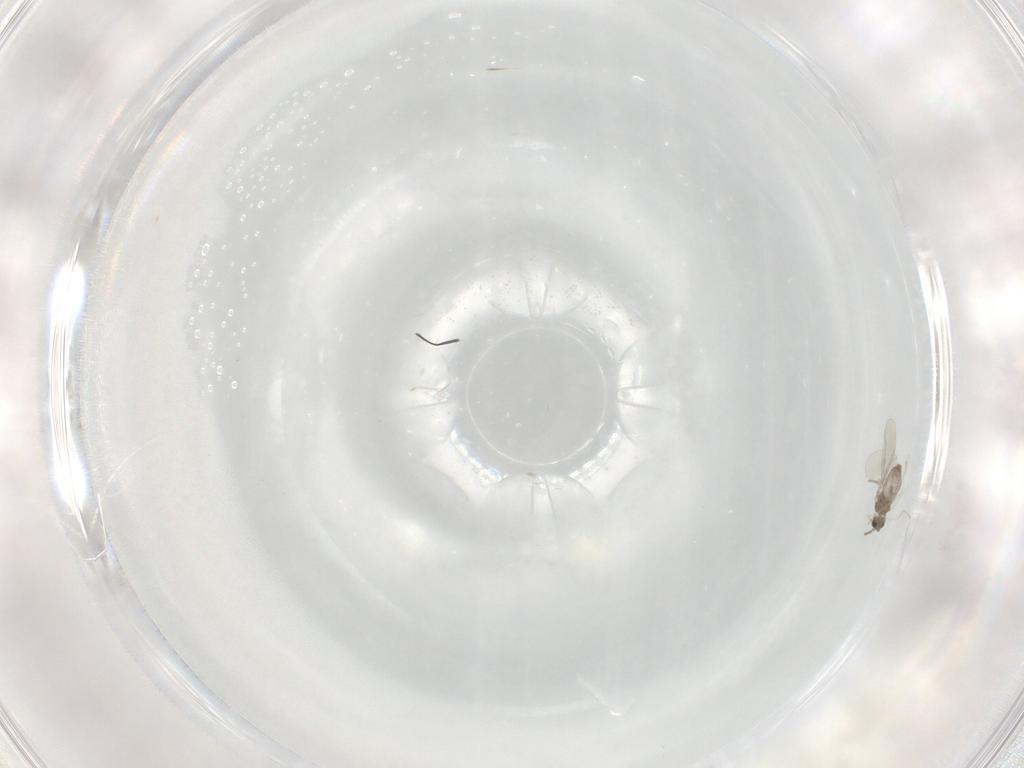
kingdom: Animalia
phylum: Arthropoda
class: Insecta
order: Diptera
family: Cecidomyiidae
